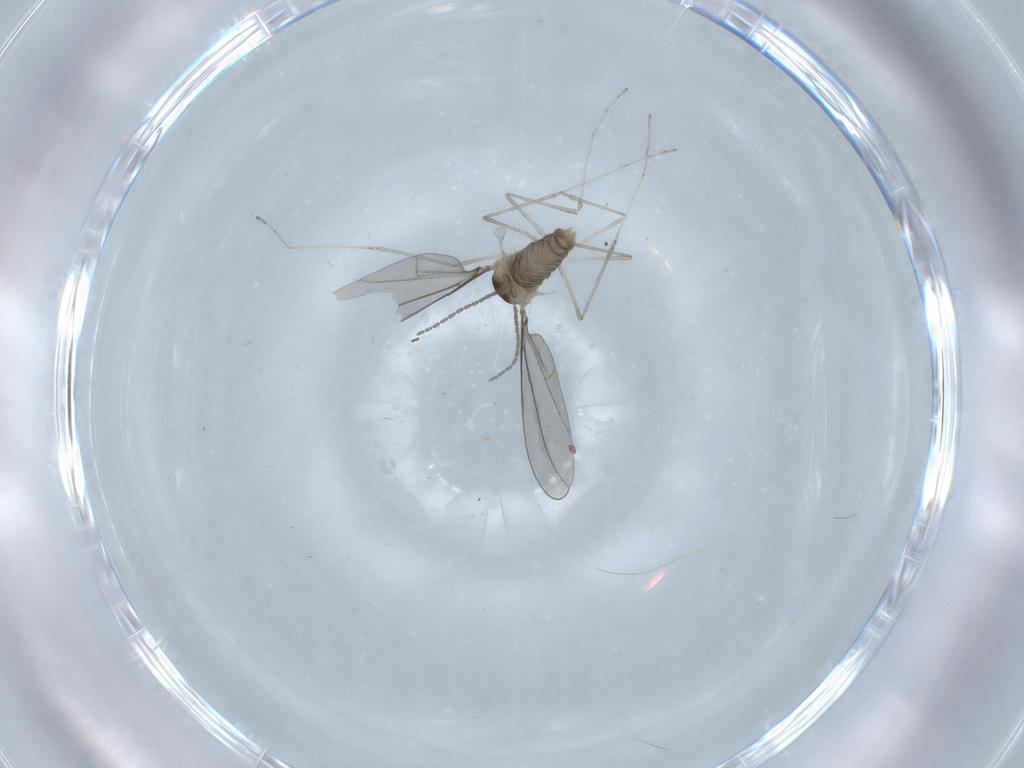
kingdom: Animalia
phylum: Arthropoda
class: Insecta
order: Diptera
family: Cecidomyiidae
